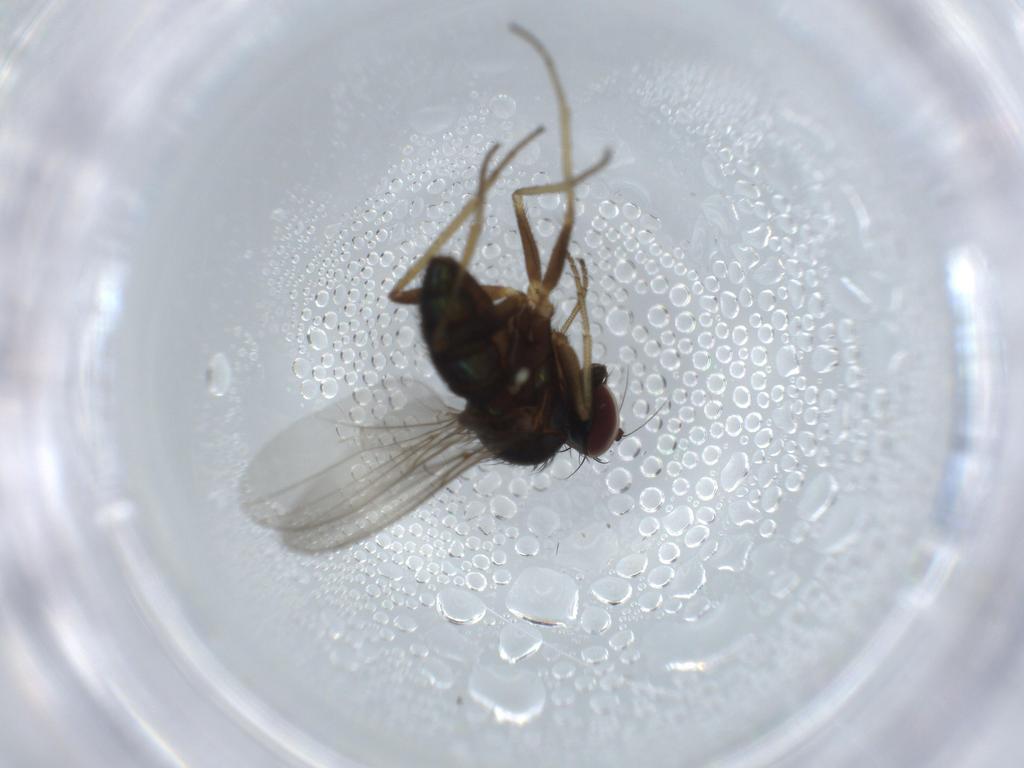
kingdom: Animalia
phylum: Arthropoda
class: Insecta
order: Diptera
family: Dolichopodidae
